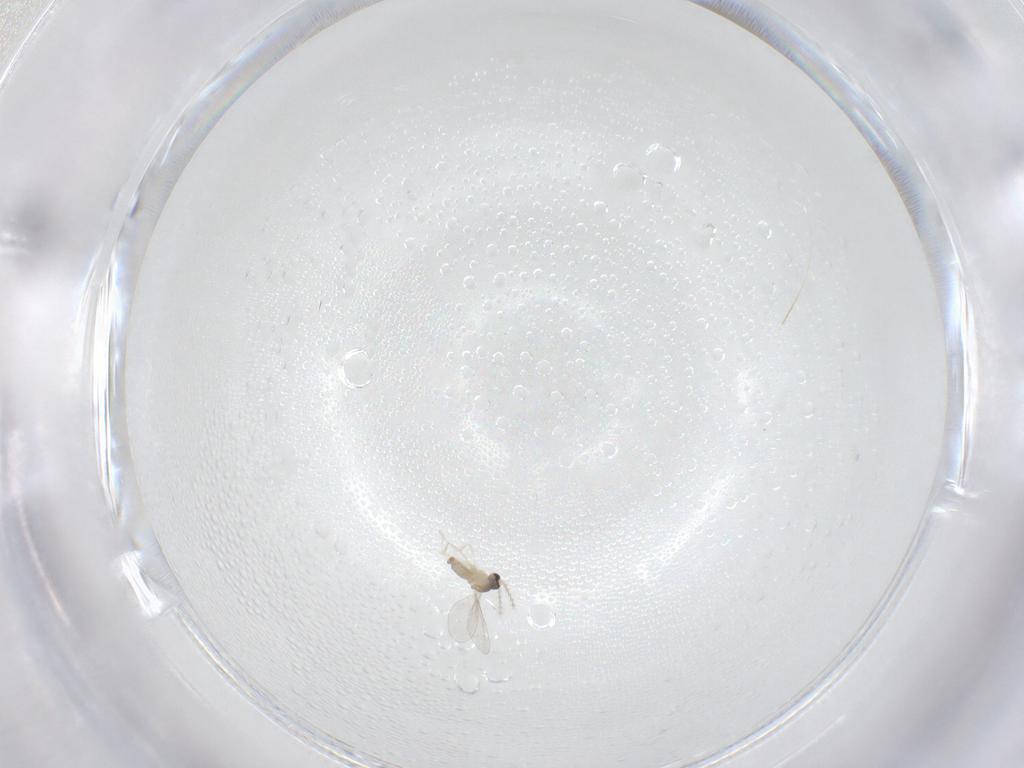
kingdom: Animalia
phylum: Arthropoda
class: Insecta
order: Diptera
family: Cecidomyiidae
